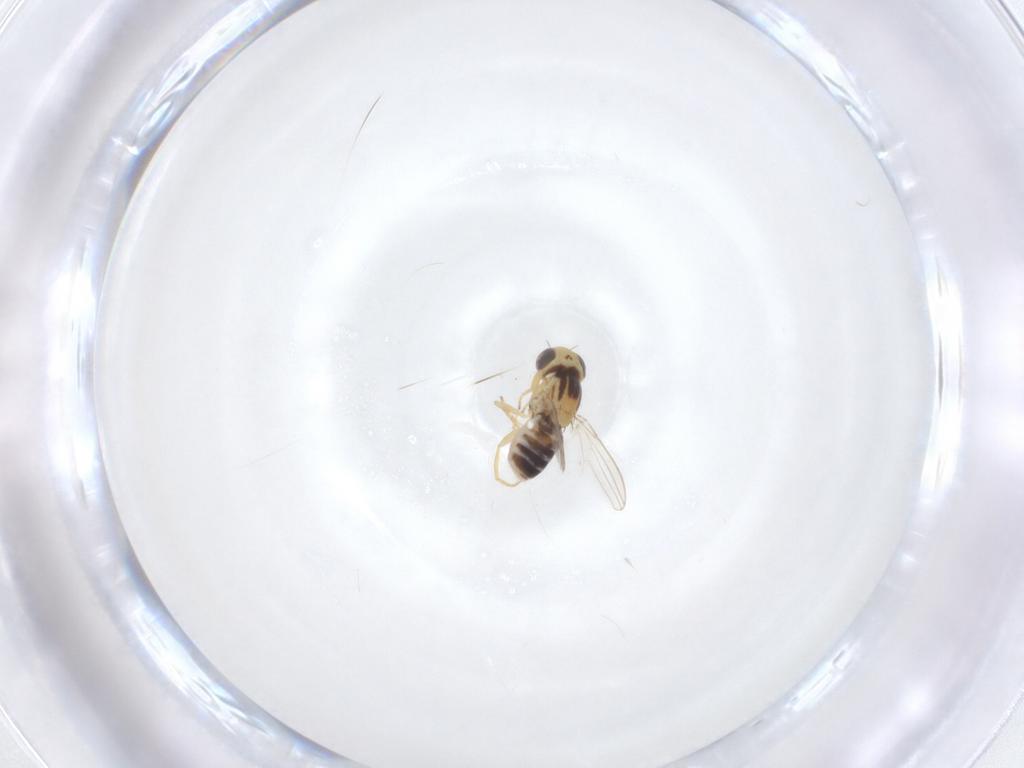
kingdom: Animalia
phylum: Arthropoda
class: Insecta
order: Diptera
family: Chyromyidae
